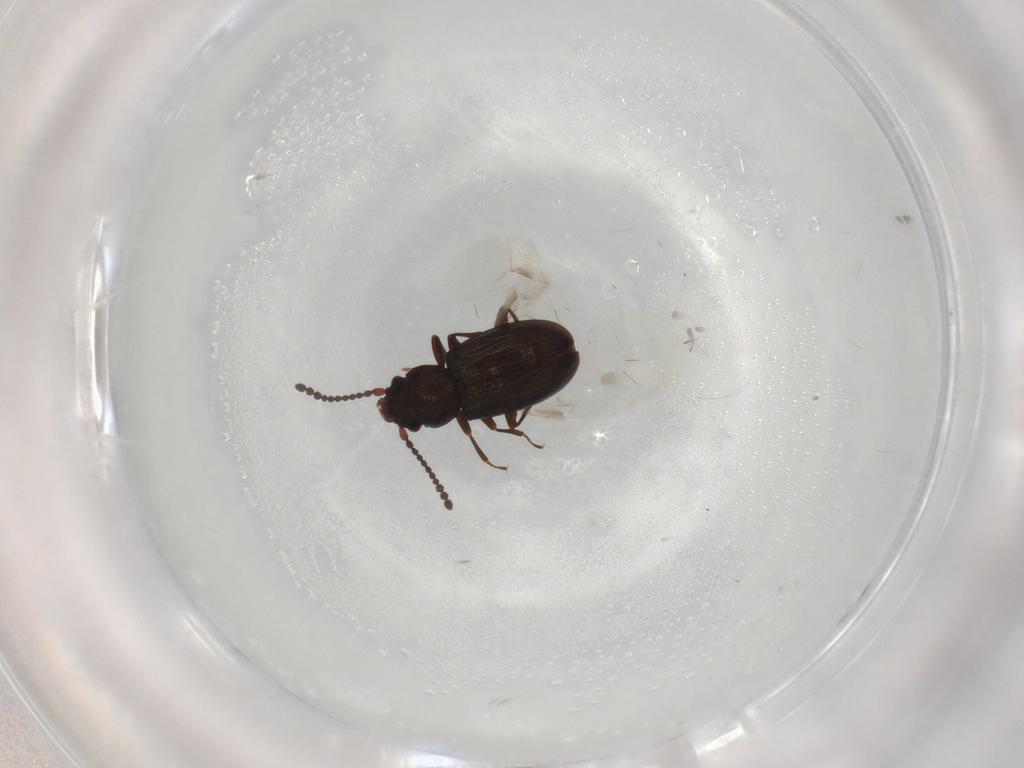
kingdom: Animalia
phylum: Arthropoda
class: Insecta
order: Coleoptera
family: Laemophloeidae
